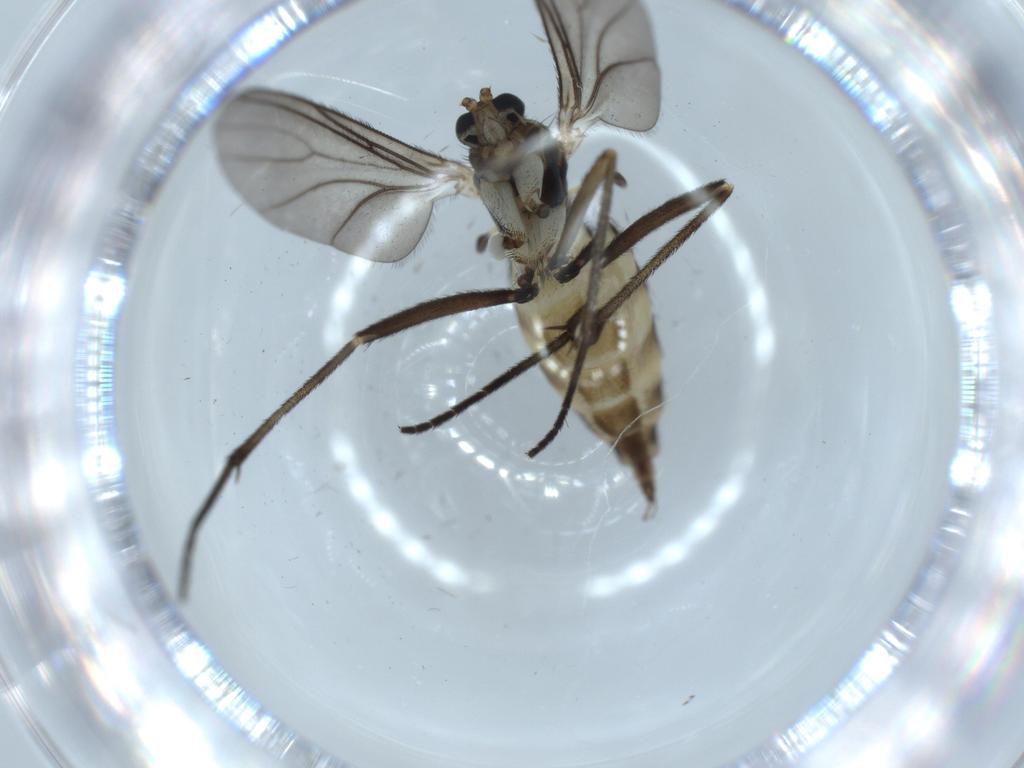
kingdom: Animalia
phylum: Arthropoda
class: Insecta
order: Diptera
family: Sciaridae
